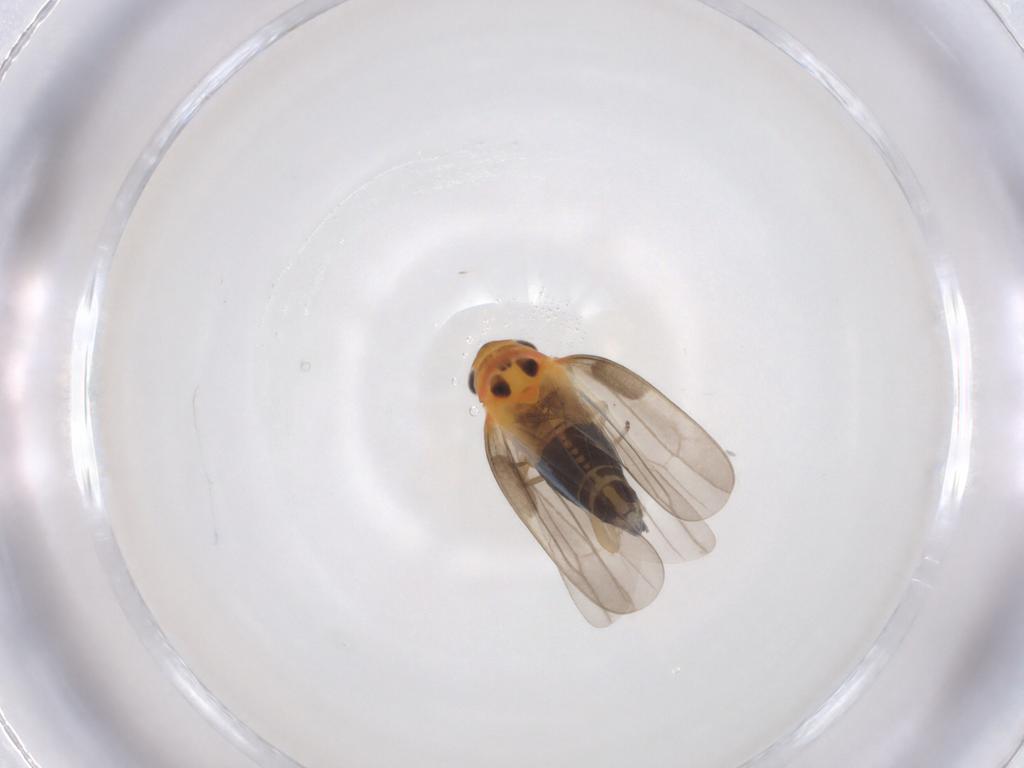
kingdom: Animalia
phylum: Arthropoda
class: Insecta
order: Hemiptera
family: Cicadellidae
